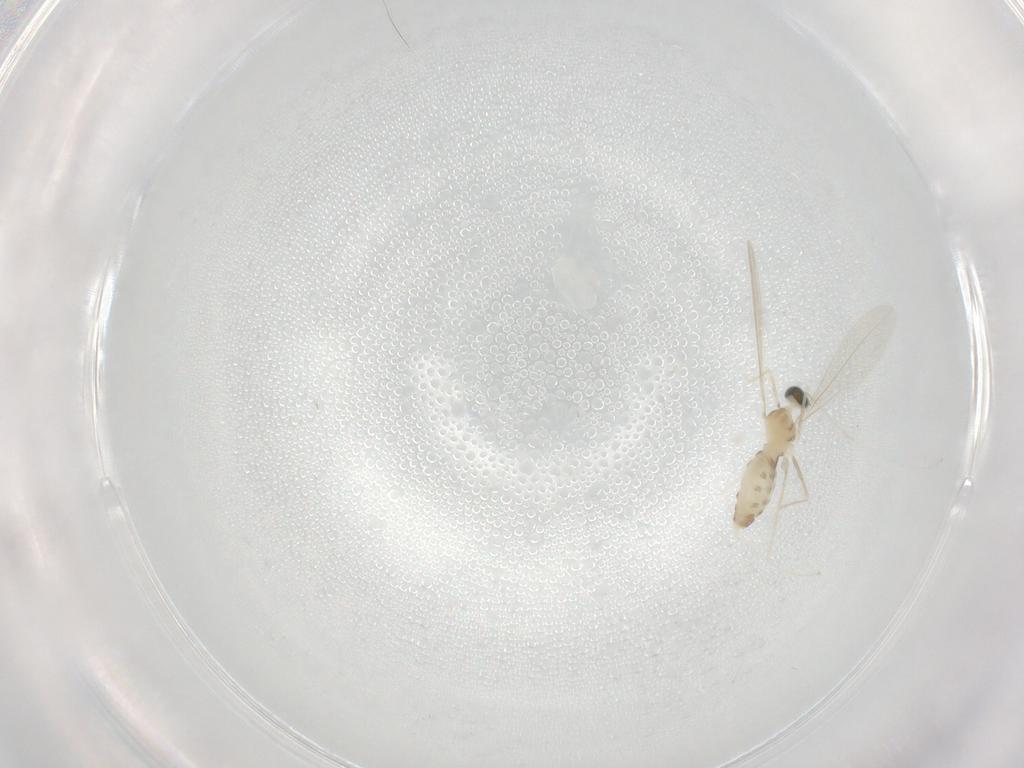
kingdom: Animalia
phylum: Arthropoda
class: Insecta
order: Diptera
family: Cecidomyiidae
